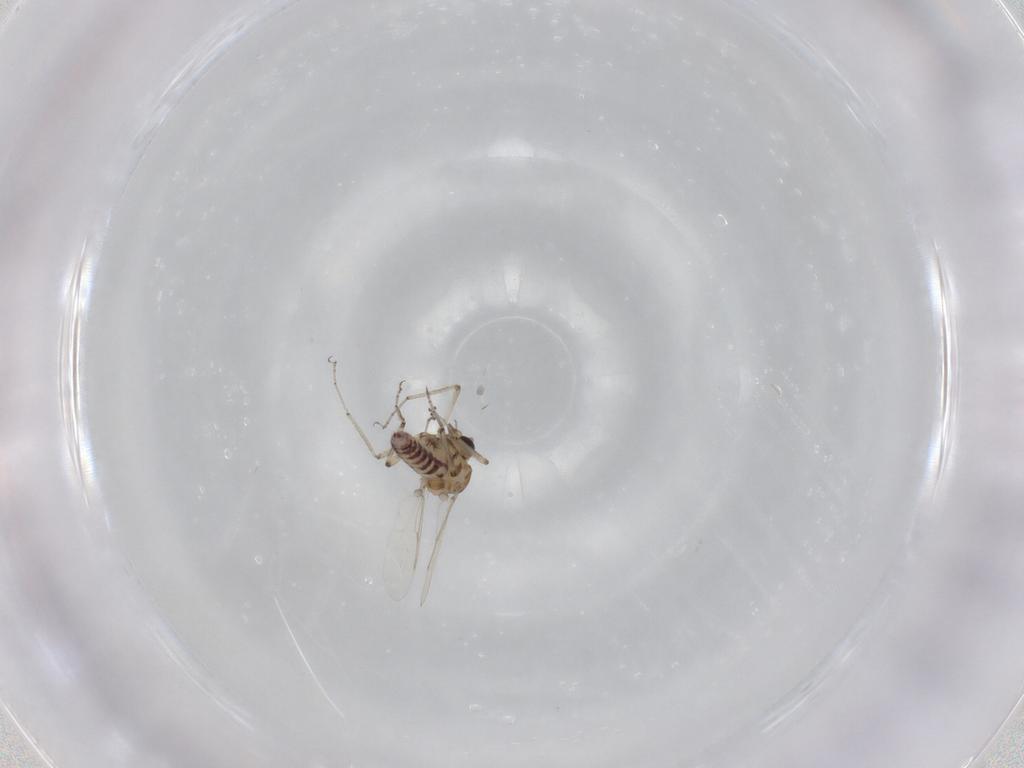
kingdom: Animalia
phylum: Arthropoda
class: Insecta
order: Diptera
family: Ceratopogonidae
